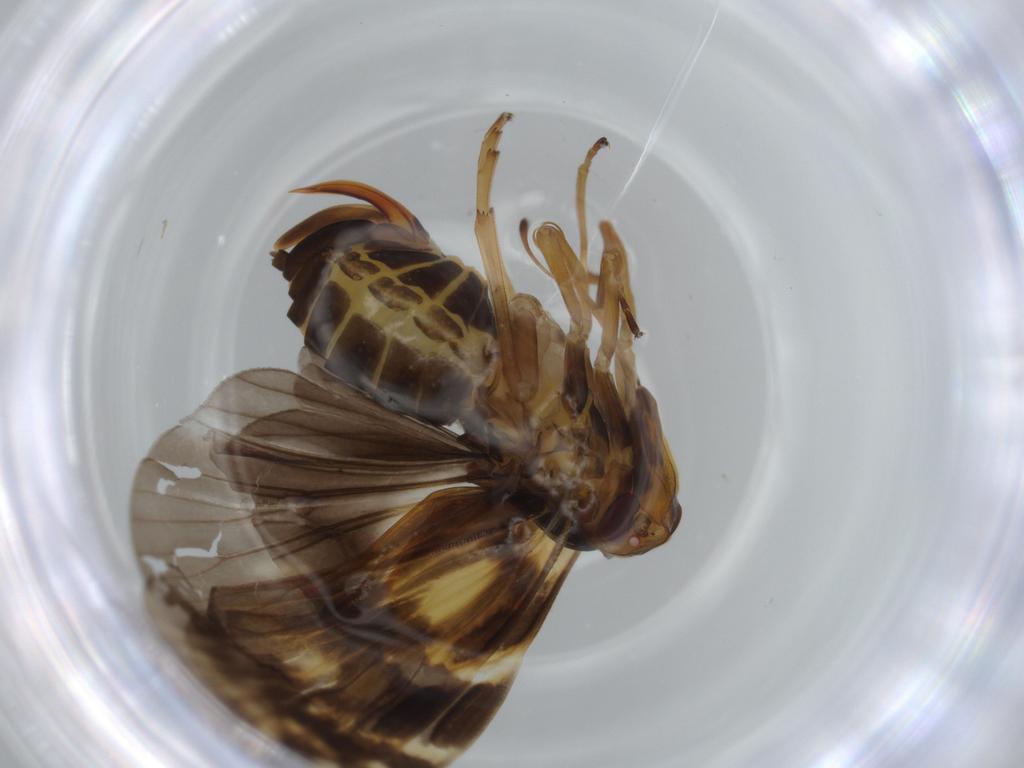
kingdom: Animalia
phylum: Arthropoda
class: Insecta
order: Hemiptera
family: Cixiidae
